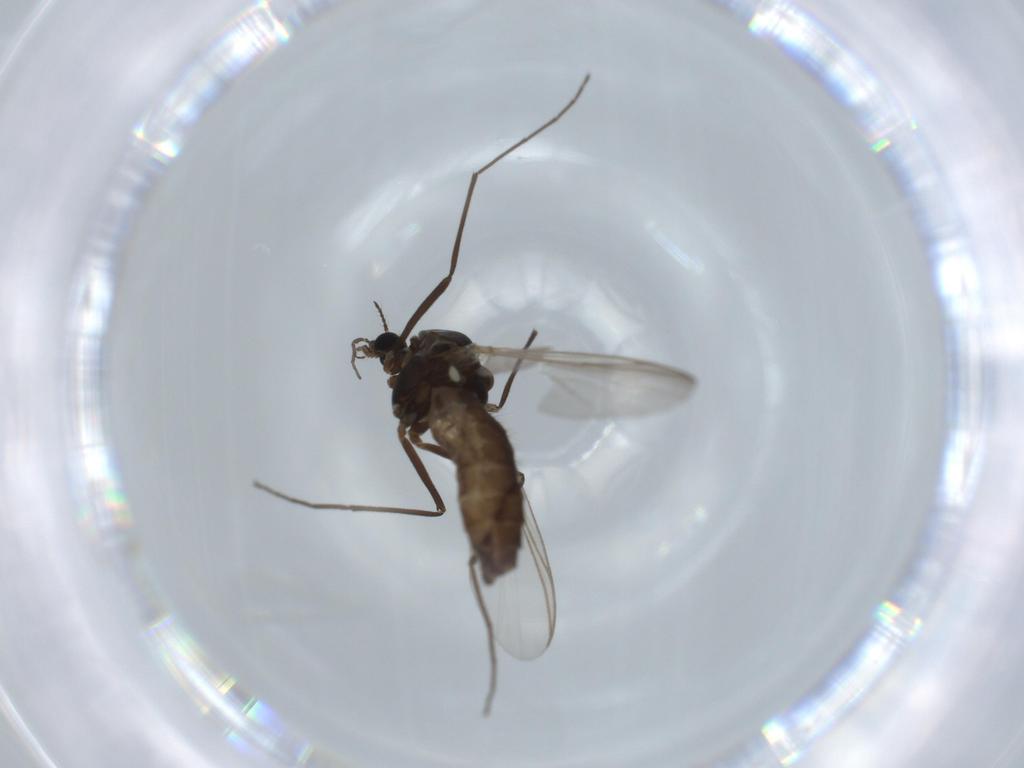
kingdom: Animalia
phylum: Arthropoda
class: Insecta
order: Diptera
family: Chironomidae
